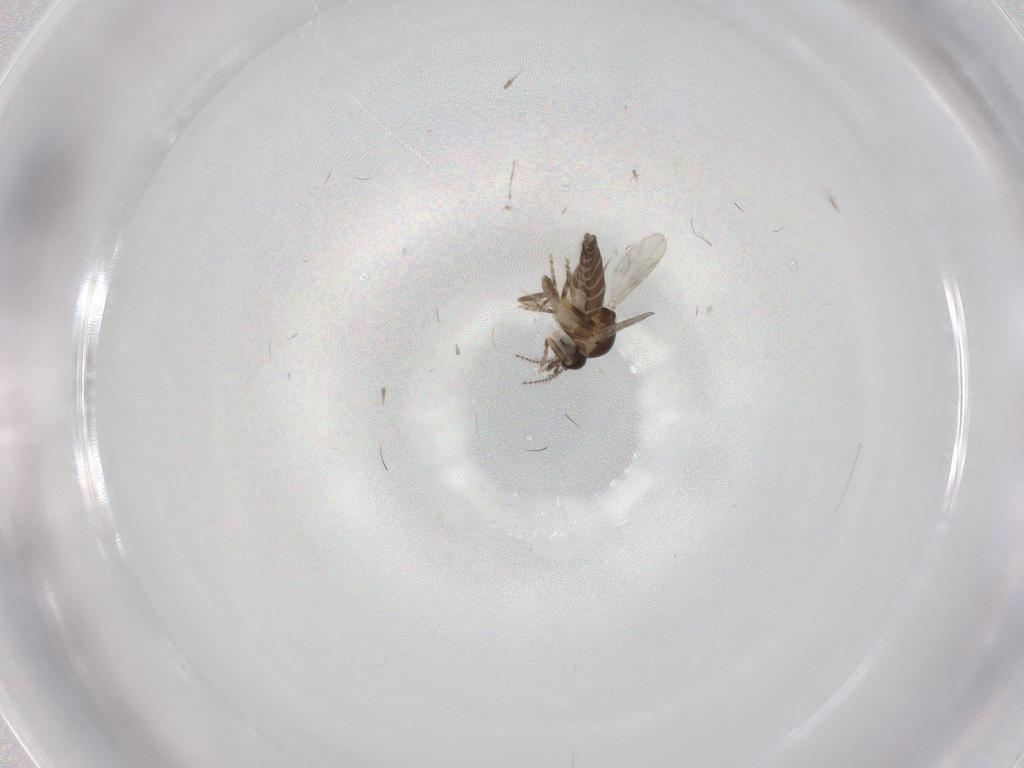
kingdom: Animalia
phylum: Arthropoda
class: Insecta
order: Diptera
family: Ceratopogonidae
